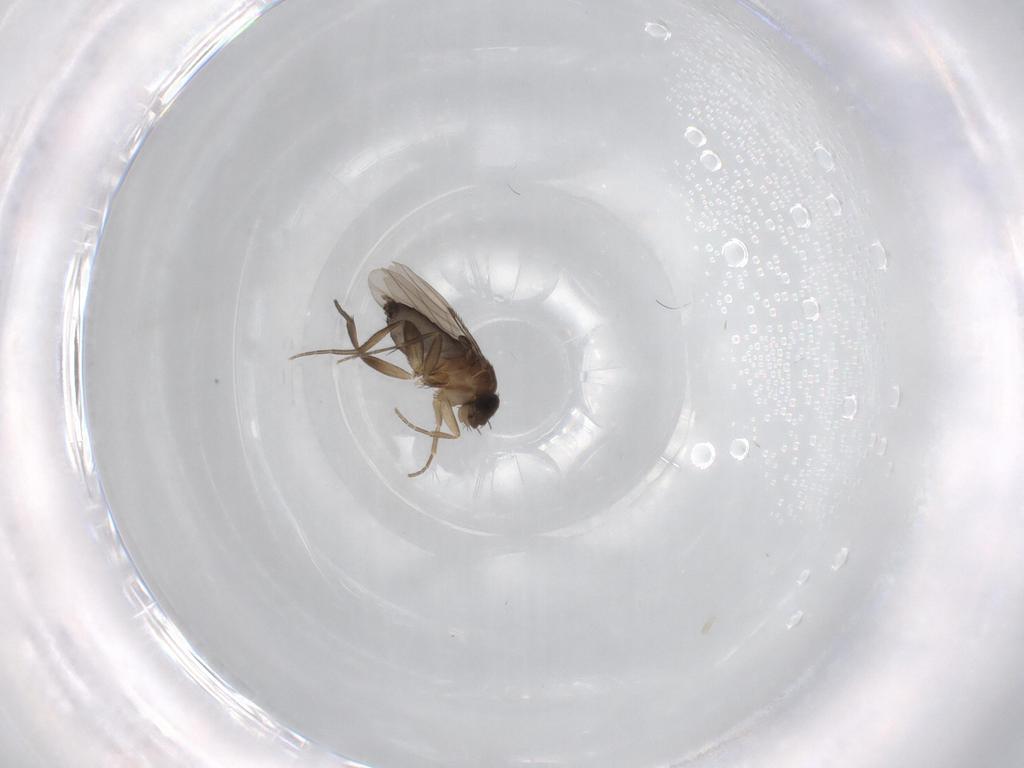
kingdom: Animalia
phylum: Arthropoda
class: Insecta
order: Diptera
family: Phoridae
